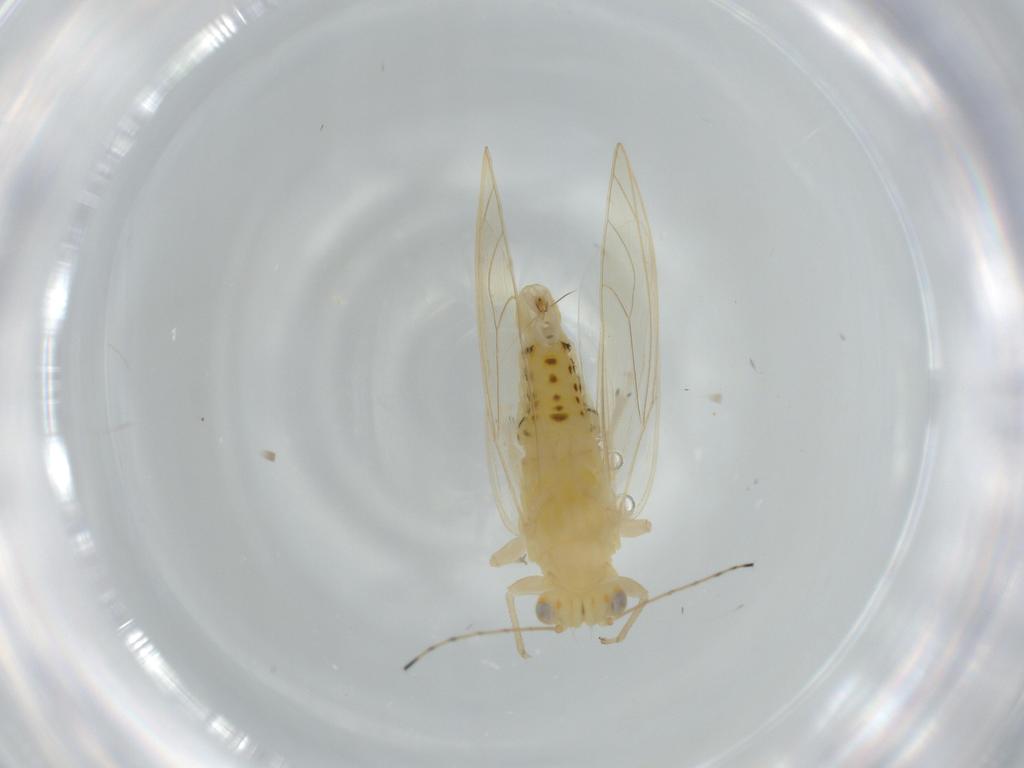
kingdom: Animalia
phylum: Arthropoda
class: Insecta
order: Hemiptera
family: Triozidae
